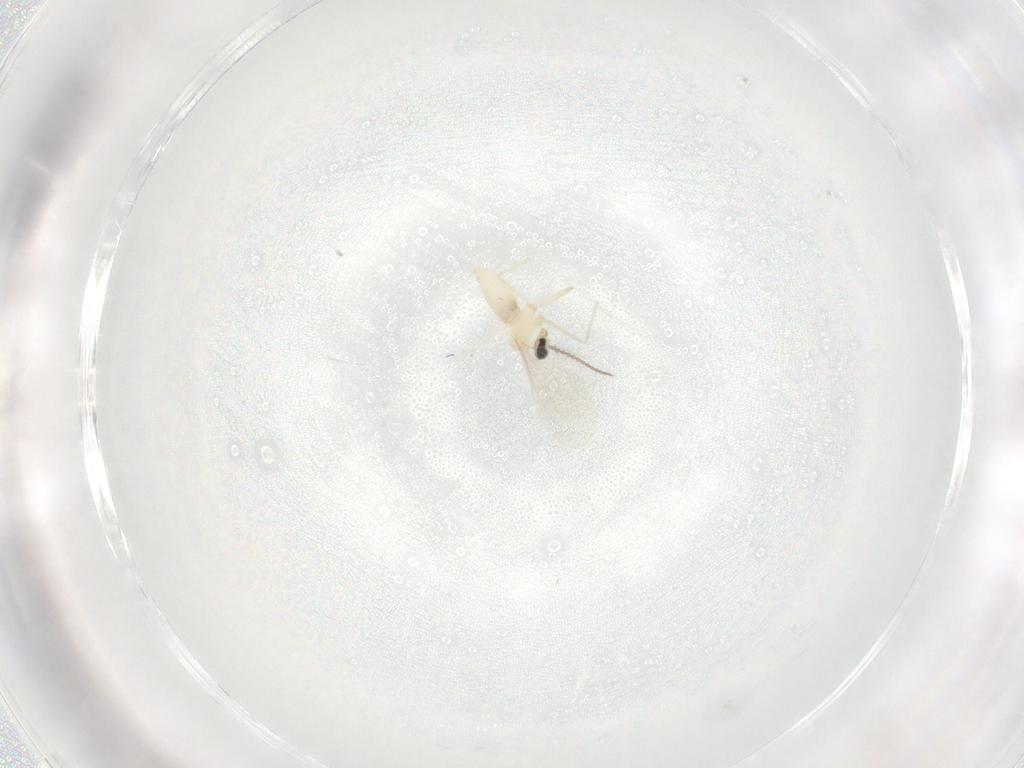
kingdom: Animalia
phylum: Arthropoda
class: Insecta
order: Diptera
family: Cecidomyiidae
